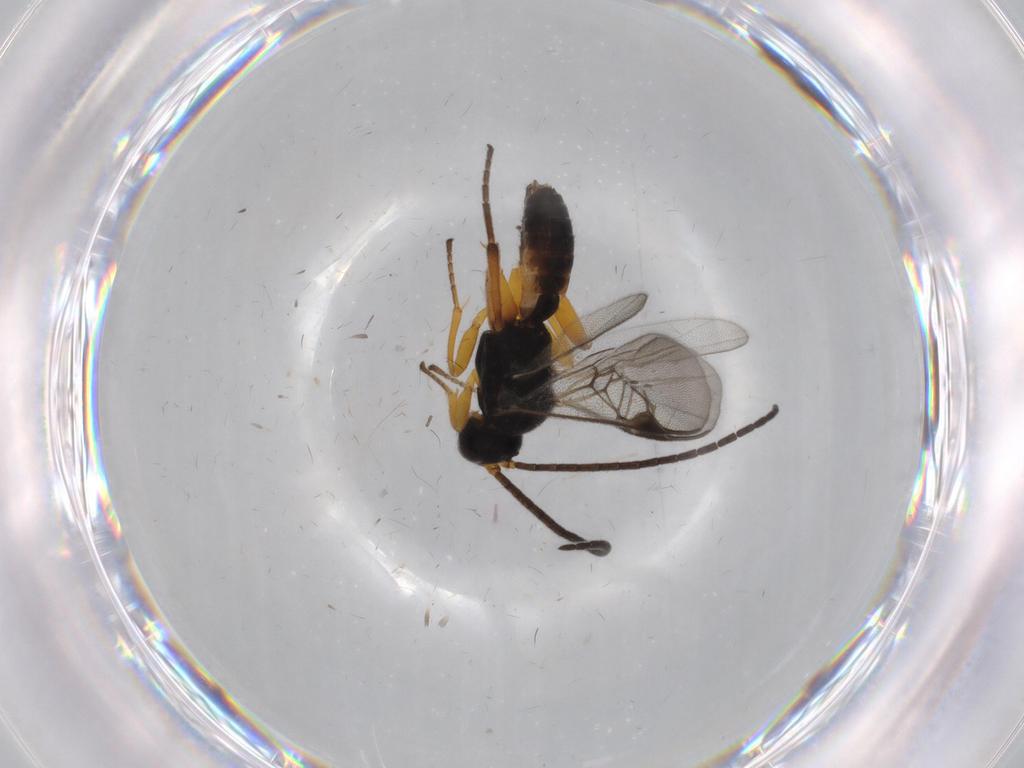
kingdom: Animalia
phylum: Arthropoda
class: Insecta
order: Hymenoptera
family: Braconidae
